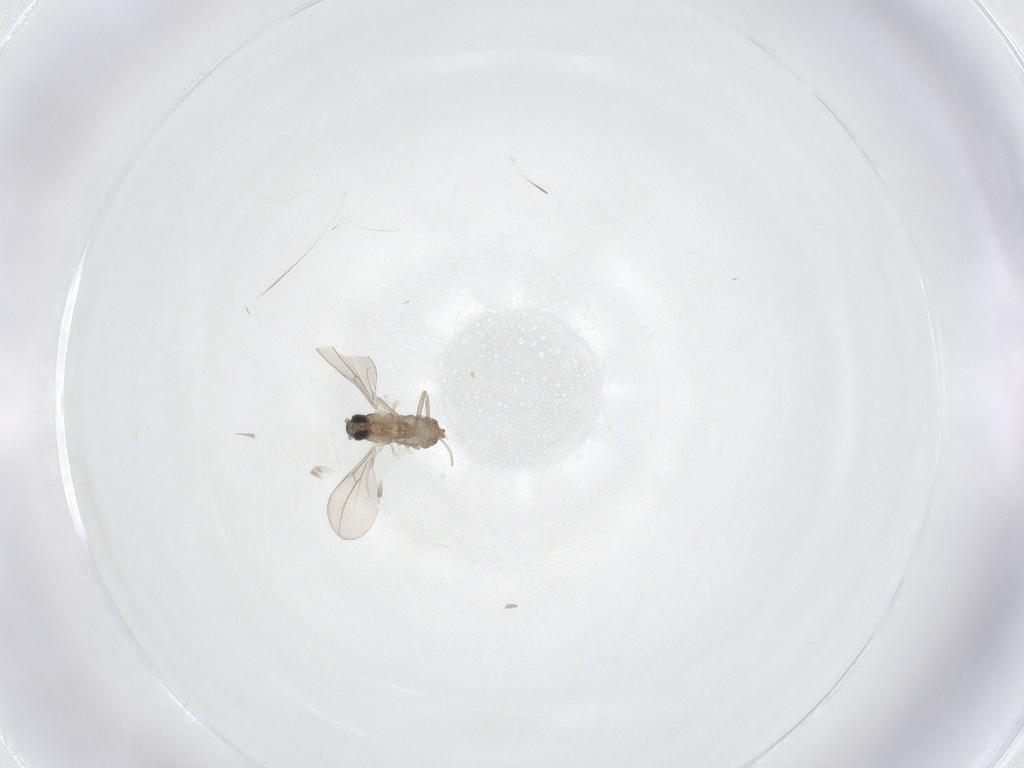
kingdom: Animalia
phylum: Arthropoda
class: Insecta
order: Diptera
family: Cecidomyiidae
